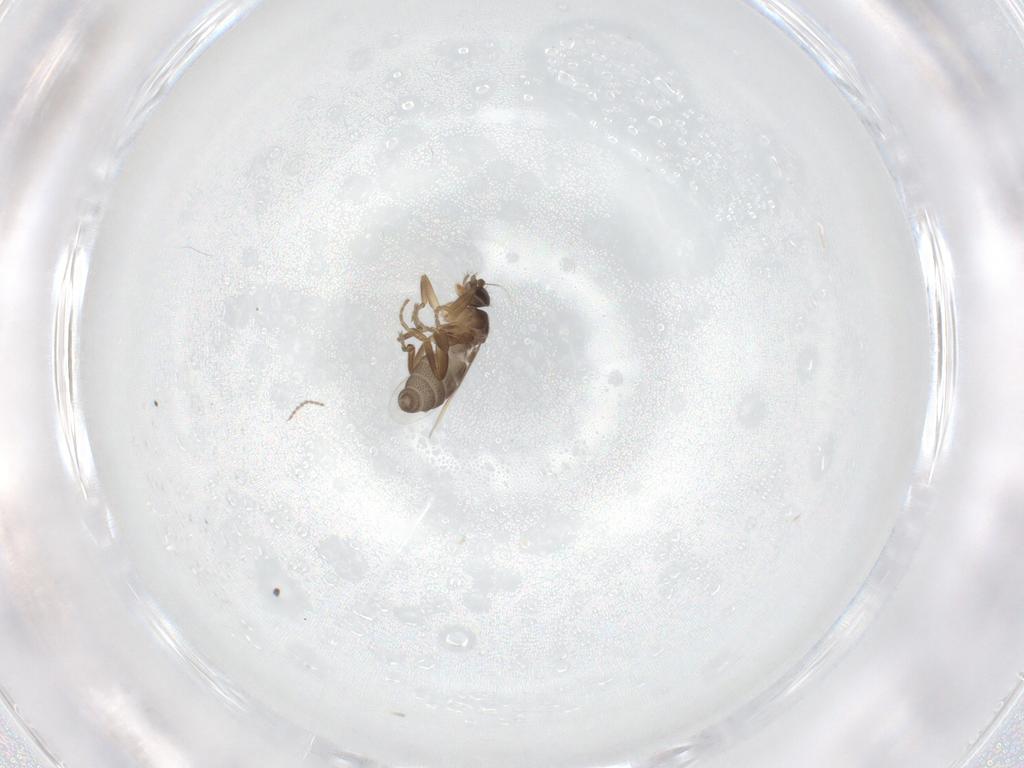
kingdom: Animalia
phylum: Arthropoda
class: Insecta
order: Diptera
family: Phoridae
